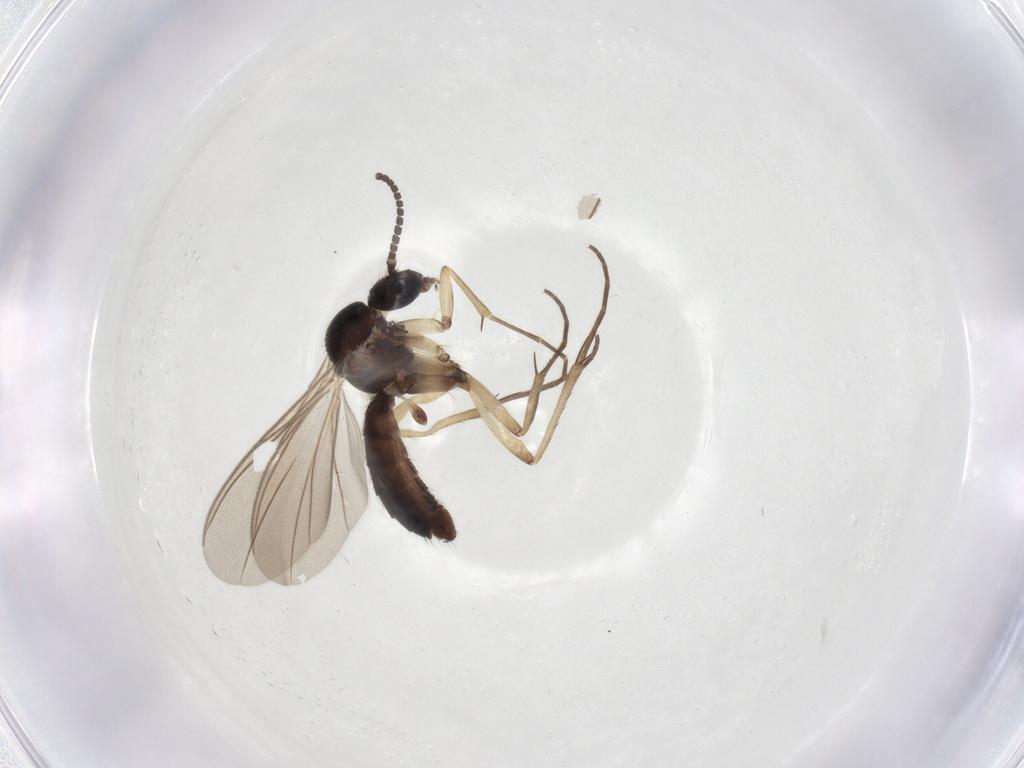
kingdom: Animalia
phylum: Arthropoda
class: Insecta
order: Diptera
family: Mycetophilidae
